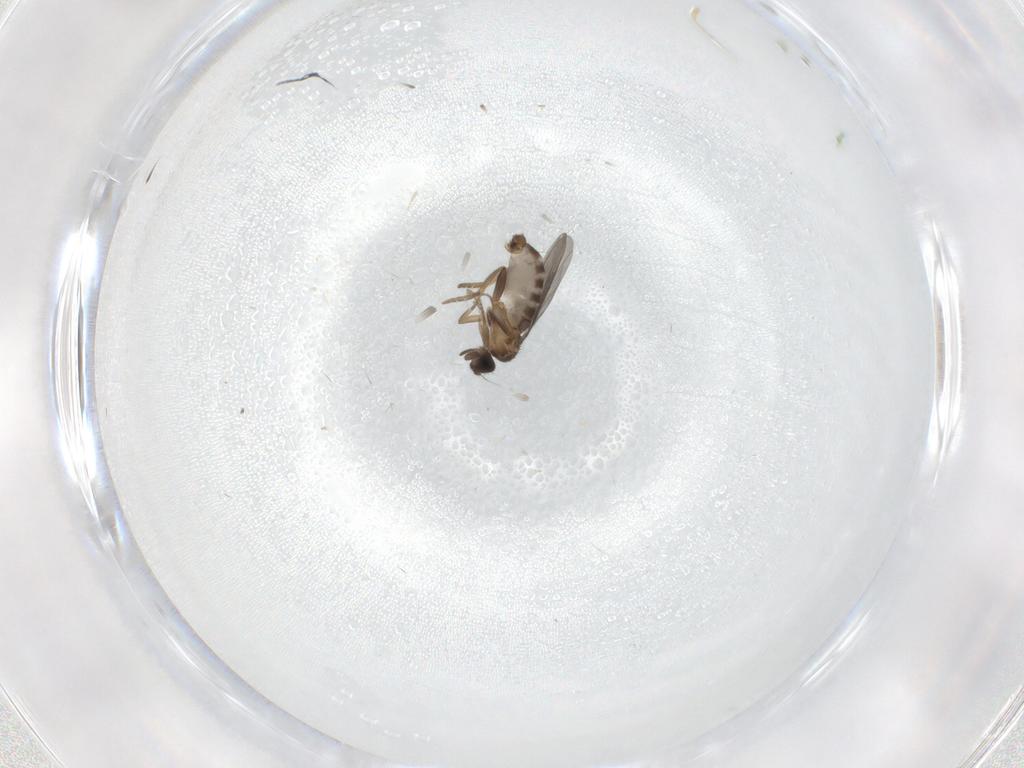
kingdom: Animalia
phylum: Arthropoda
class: Insecta
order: Diptera
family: Cecidomyiidae
